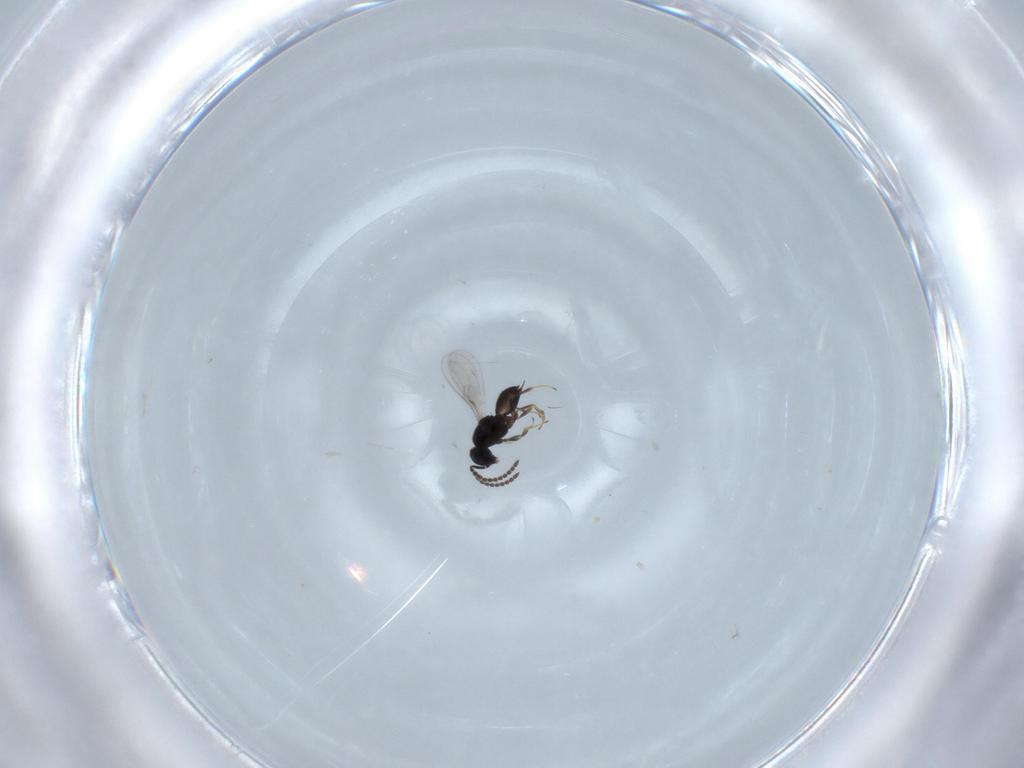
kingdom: Animalia
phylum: Arthropoda
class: Insecta
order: Hymenoptera
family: Scelionidae
